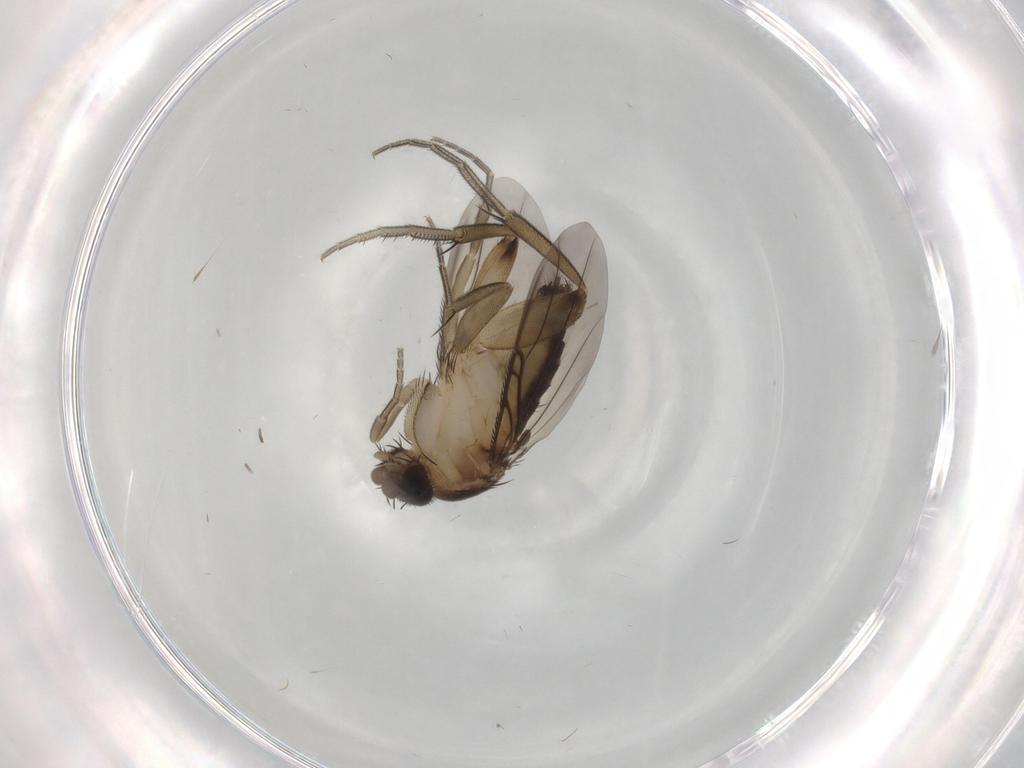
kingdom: Animalia
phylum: Arthropoda
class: Insecta
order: Diptera
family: Phoridae
